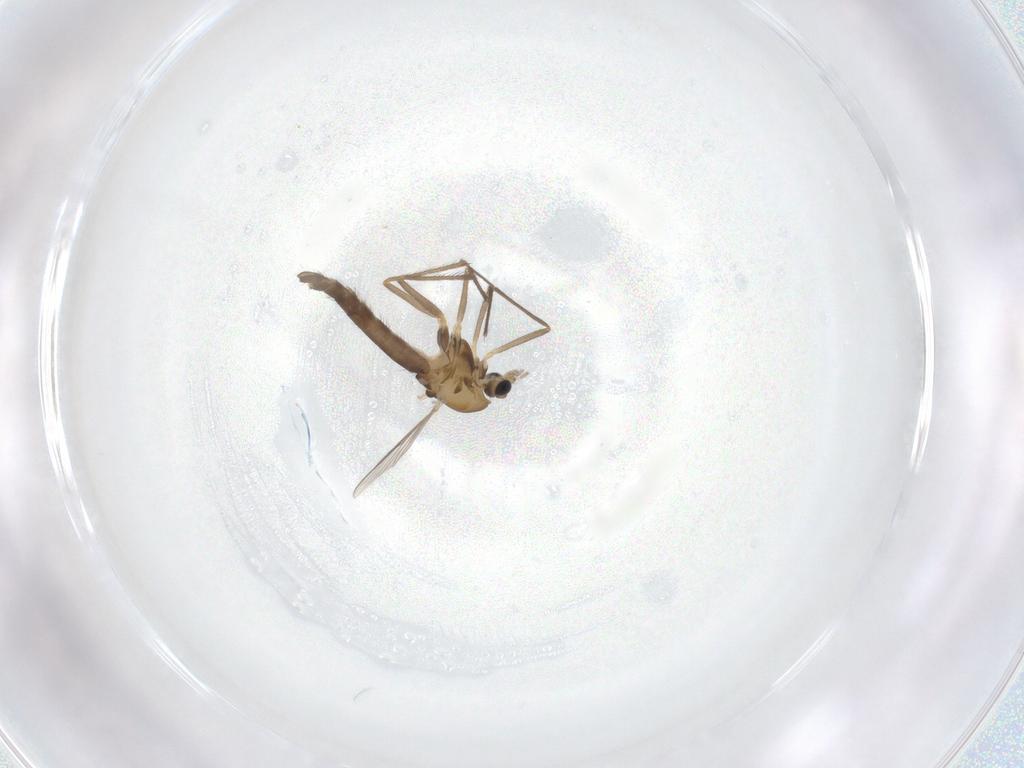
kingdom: Animalia
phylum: Arthropoda
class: Insecta
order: Diptera
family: Chironomidae
